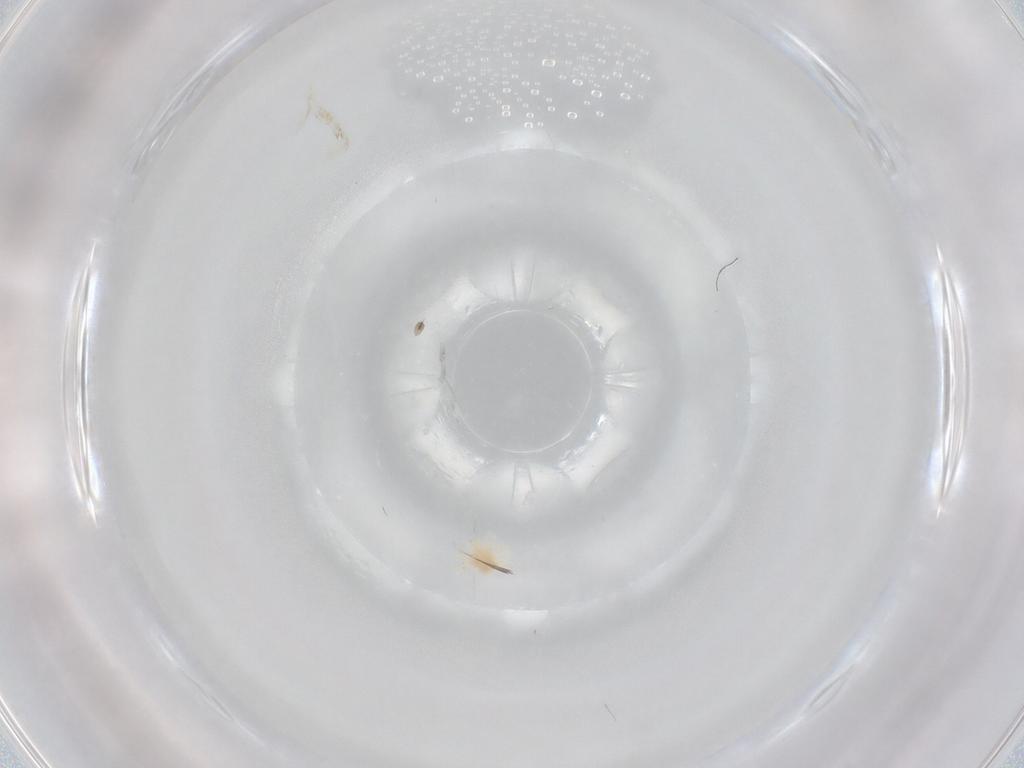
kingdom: Animalia
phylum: Arthropoda
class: Arachnida
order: Trombidiformes
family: Anystidae
